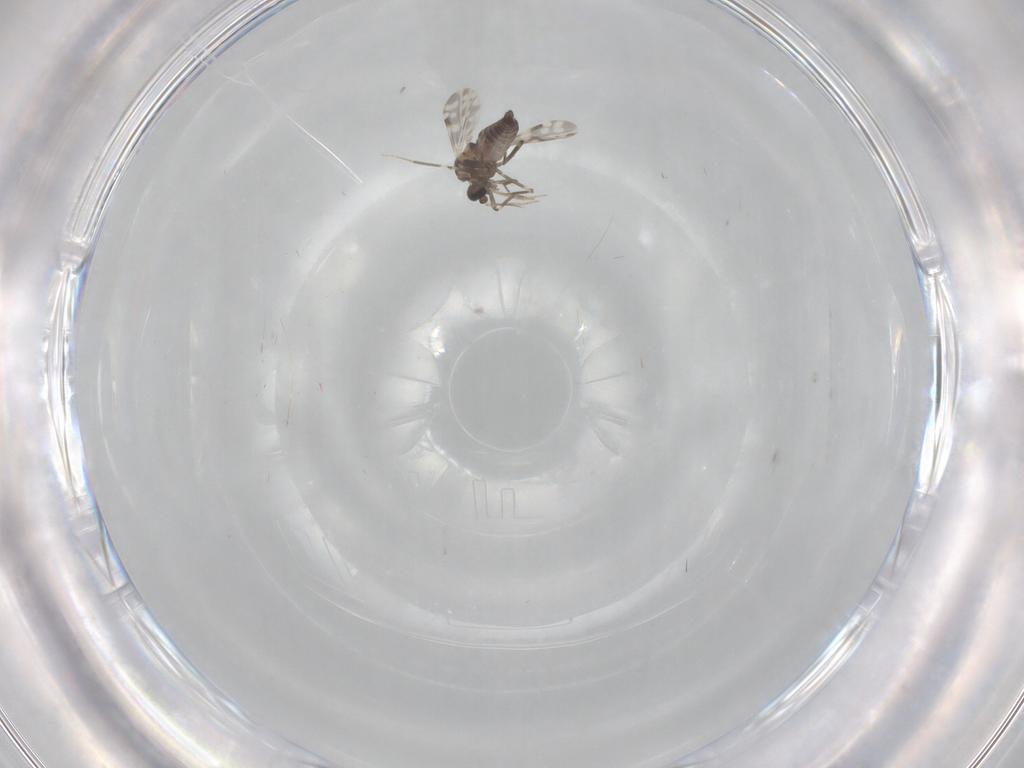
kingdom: Animalia
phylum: Arthropoda
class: Insecta
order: Diptera
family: Ceratopogonidae
